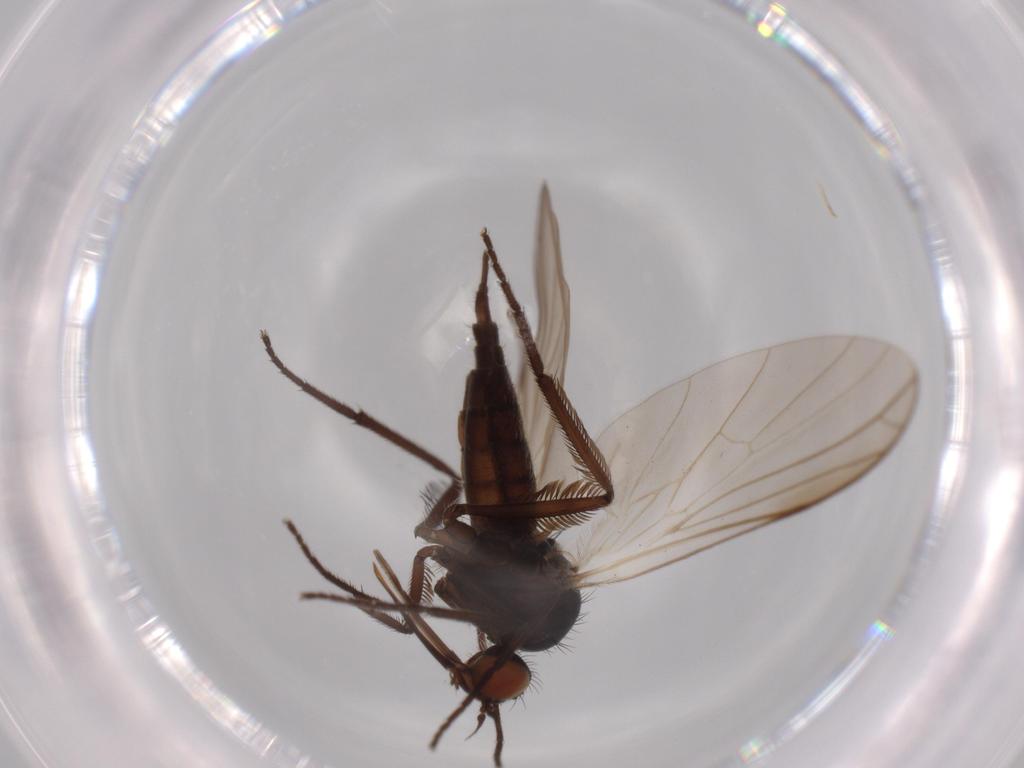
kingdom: Animalia
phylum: Arthropoda
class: Insecta
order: Diptera
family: Empididae
